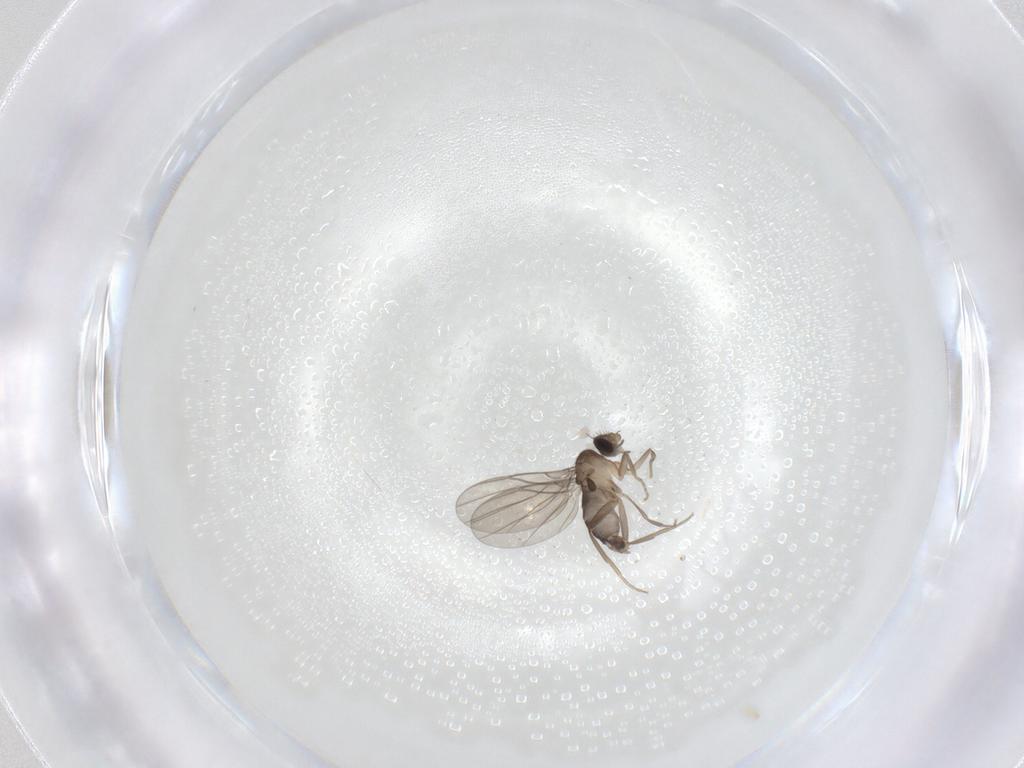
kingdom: Animalia
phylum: Arthropoda
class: Insecta
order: Diptera
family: Phoridae
